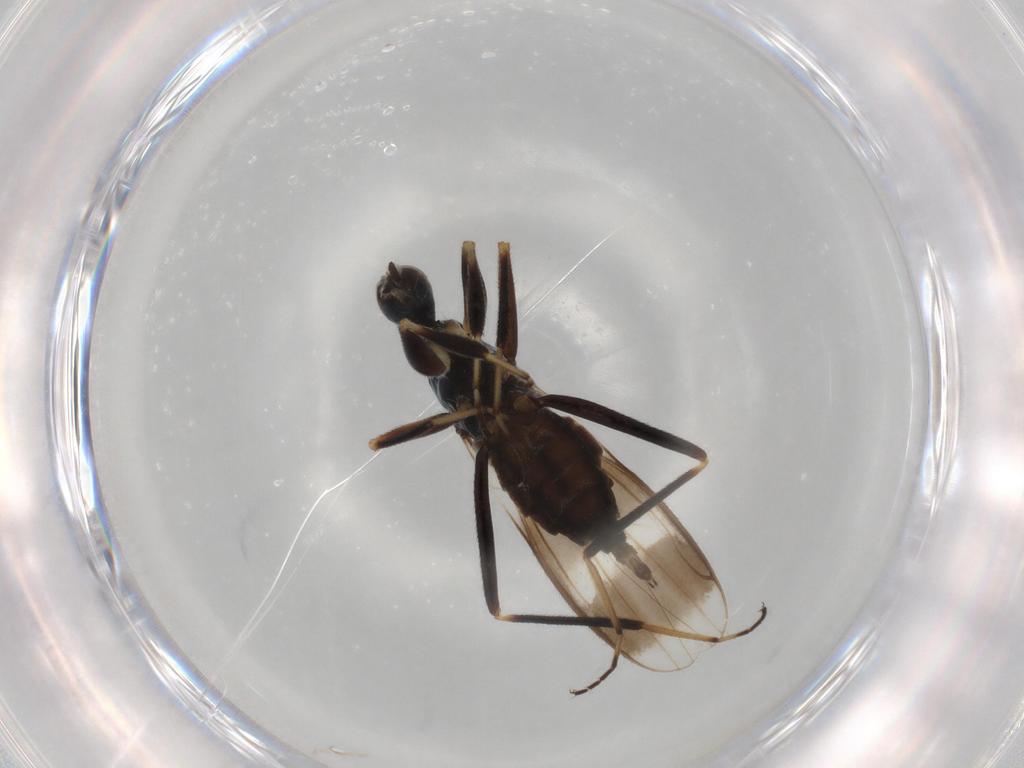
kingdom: Animalia
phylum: Arthropoda
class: Insecta
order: Diptera
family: Hybotidae
